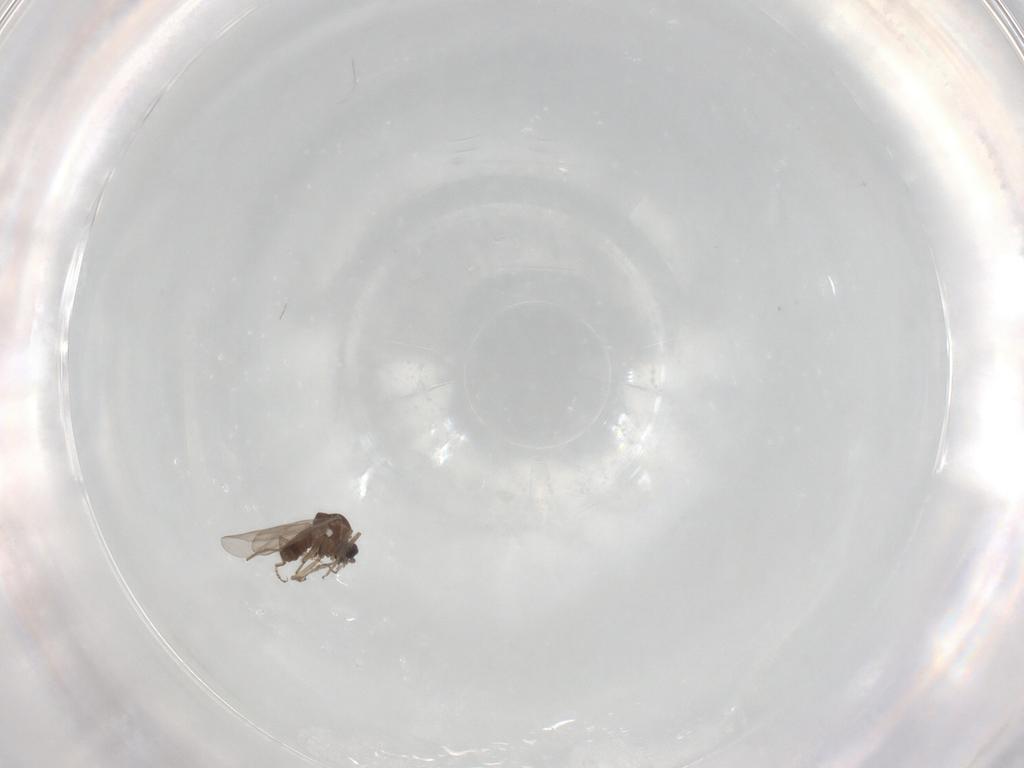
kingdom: Animalia
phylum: Arthropoda
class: Insecta
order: Diptera
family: Ceratopogonidae
